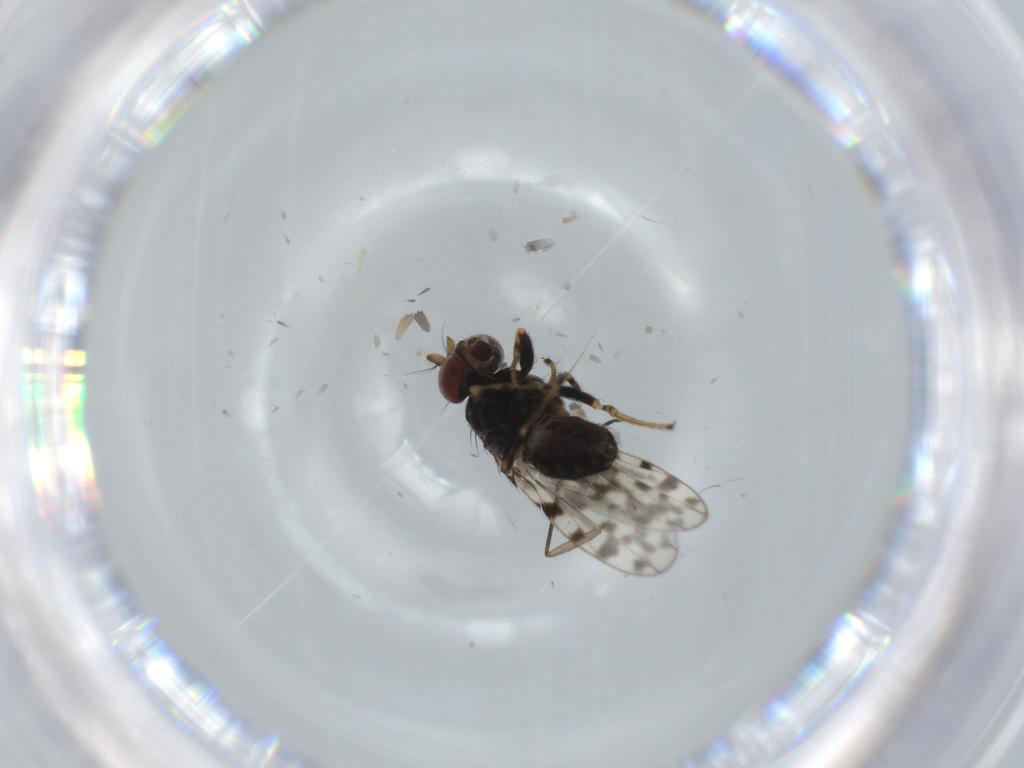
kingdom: Animalia
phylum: Arthropoda
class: Insecta
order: Diptera
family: Ephydridae
